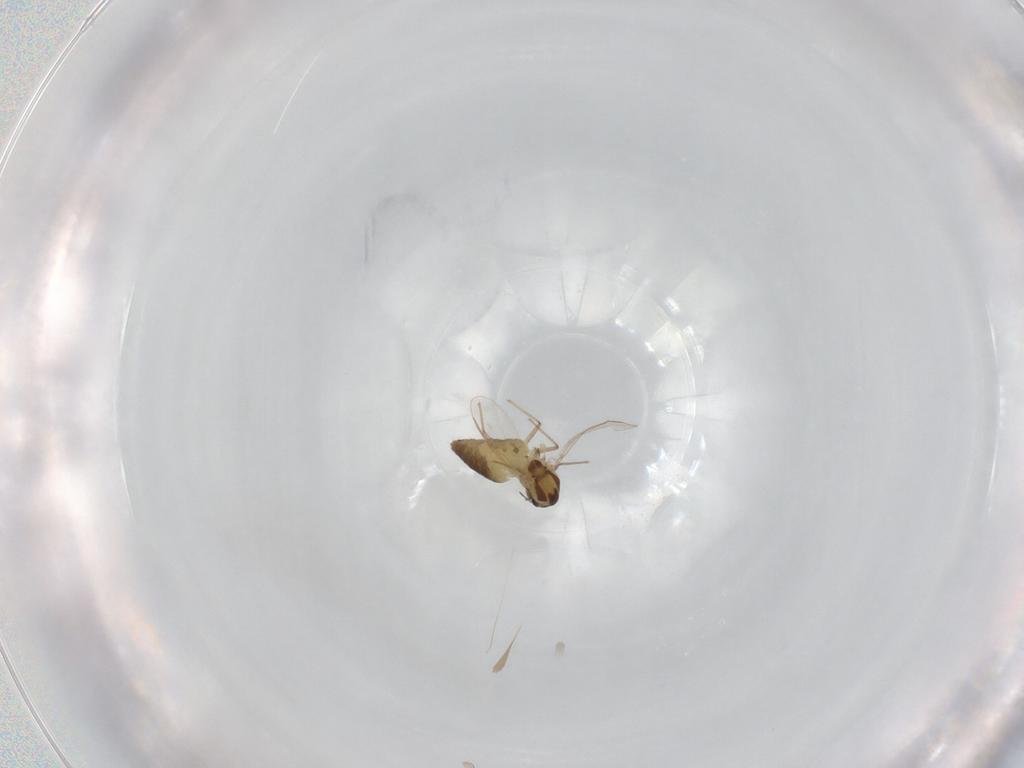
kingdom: Animalia
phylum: Arthropoda
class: Insecta
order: Diptera
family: Chironomidae
